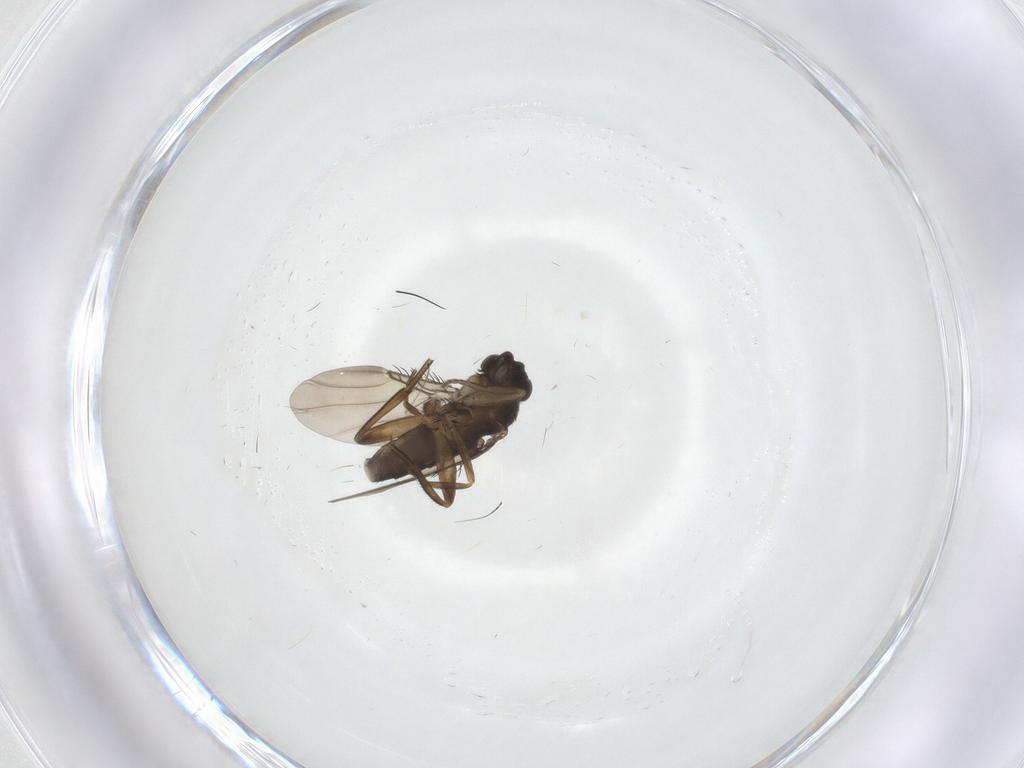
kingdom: Animalia
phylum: Arthropoda
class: Insecta
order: Diptera
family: Phoridae
